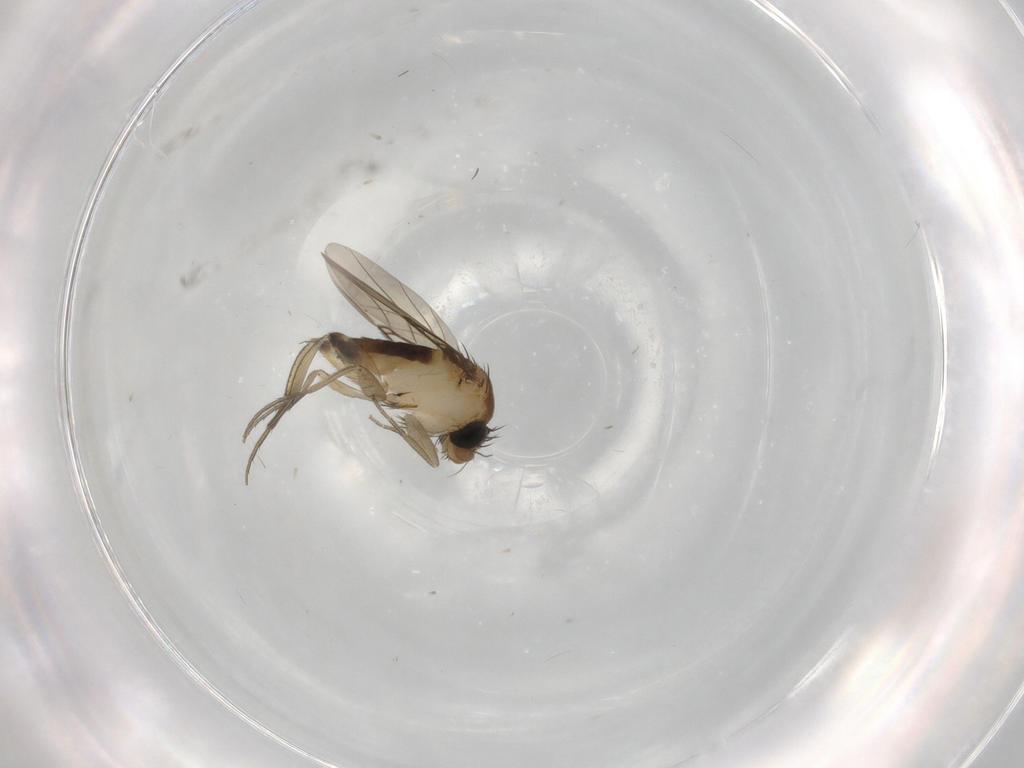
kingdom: Animalia
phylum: Arthropoda
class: Insecta
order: Diptera
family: Phoridae
